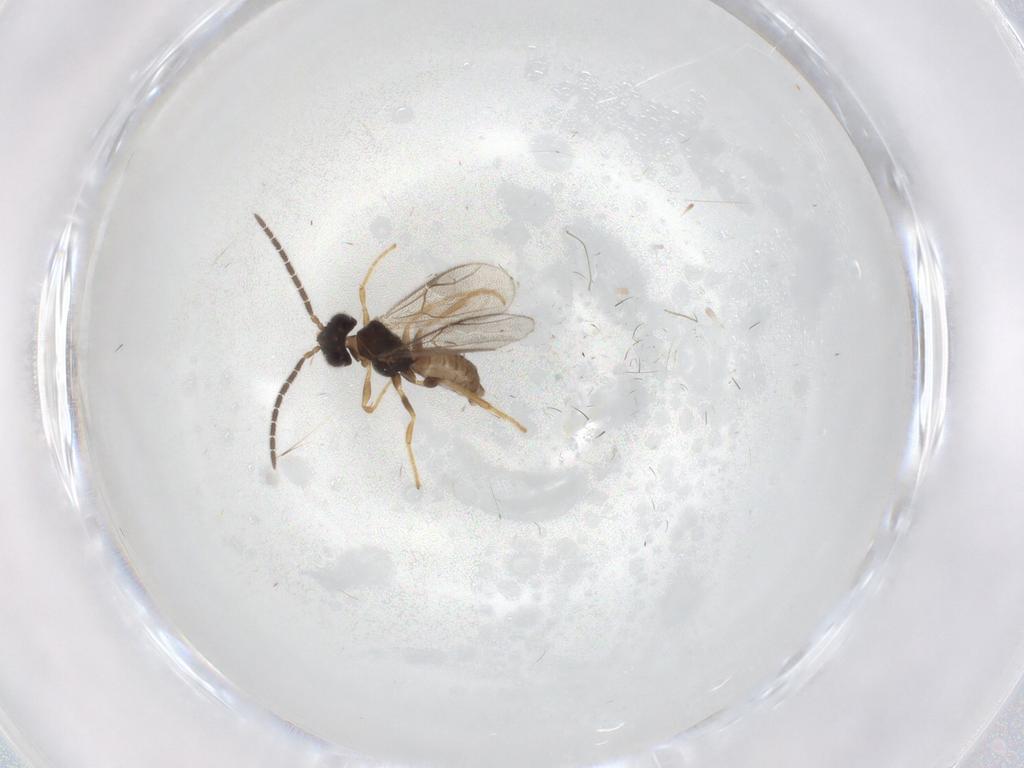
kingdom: Animalia
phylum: Arthropoda
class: Insecta
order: Hymenoptera
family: Dryinidae
